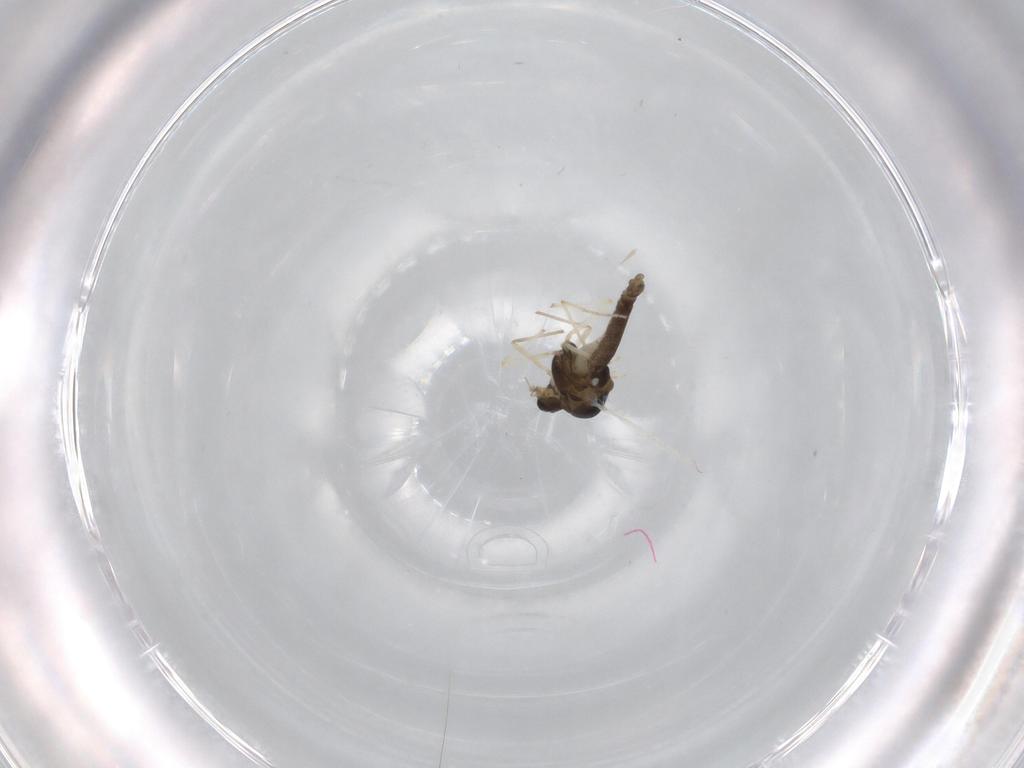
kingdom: Animalia
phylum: Arthropoda
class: Insecta
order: Diptera
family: Chironomidae
